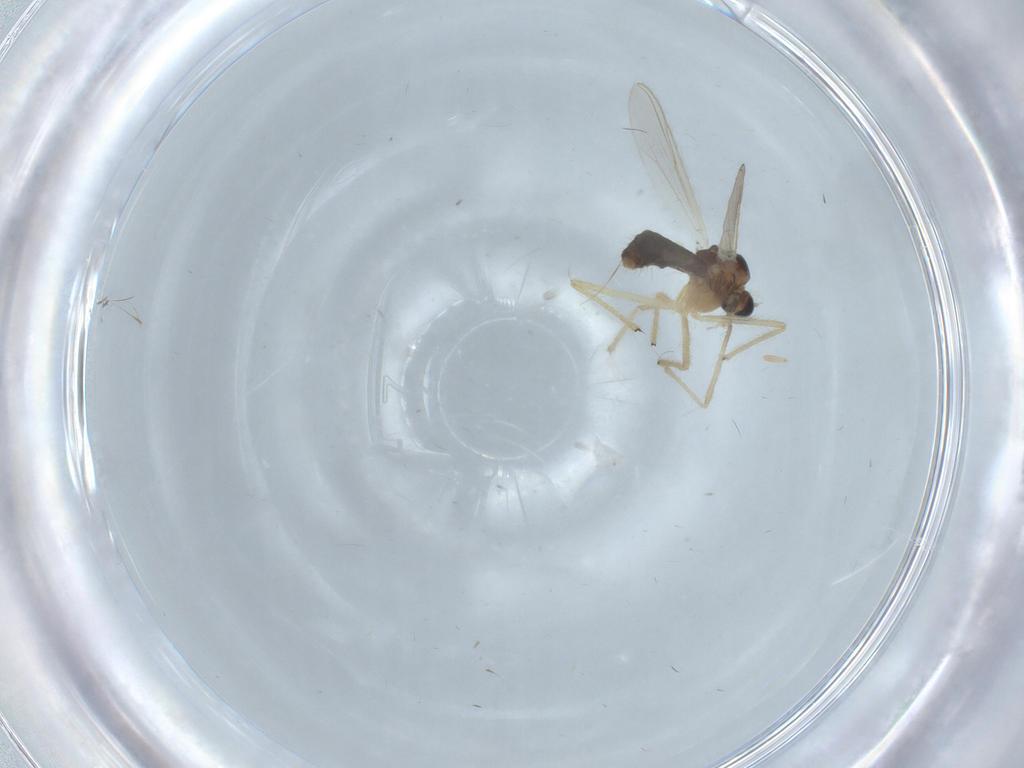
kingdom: Animalia
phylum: Arthropoda
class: Insecta
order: Diptera
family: Chironomidae
